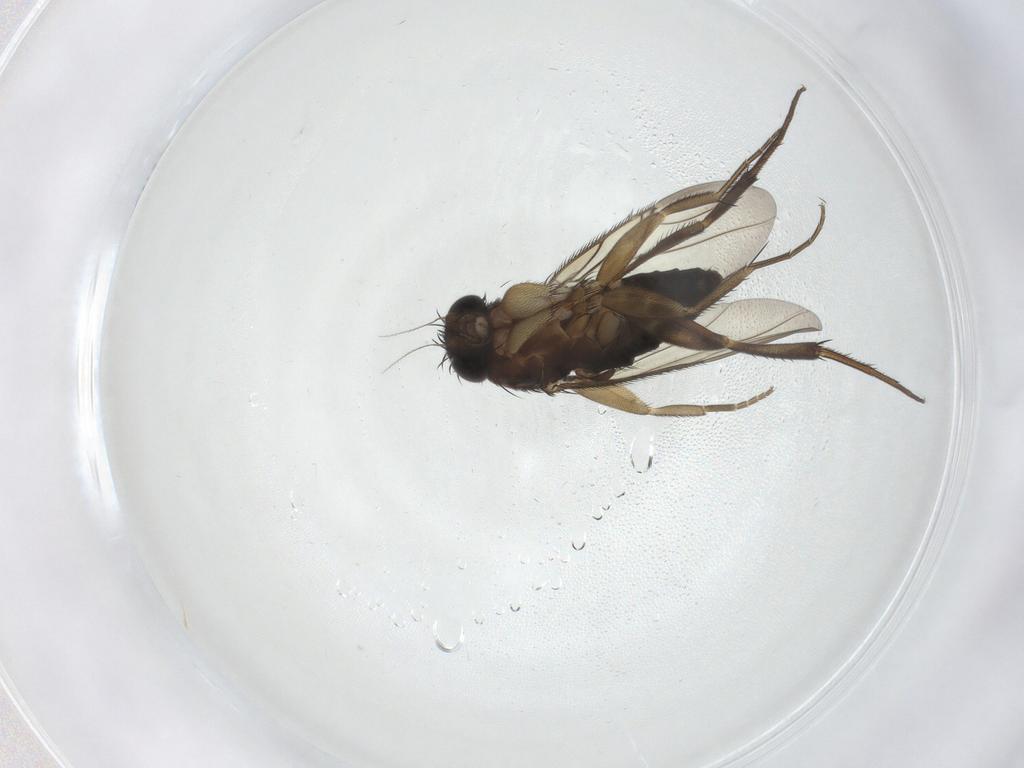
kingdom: Animalia
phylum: Arthropoda
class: Insecta
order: Diptera
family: Phoridae
